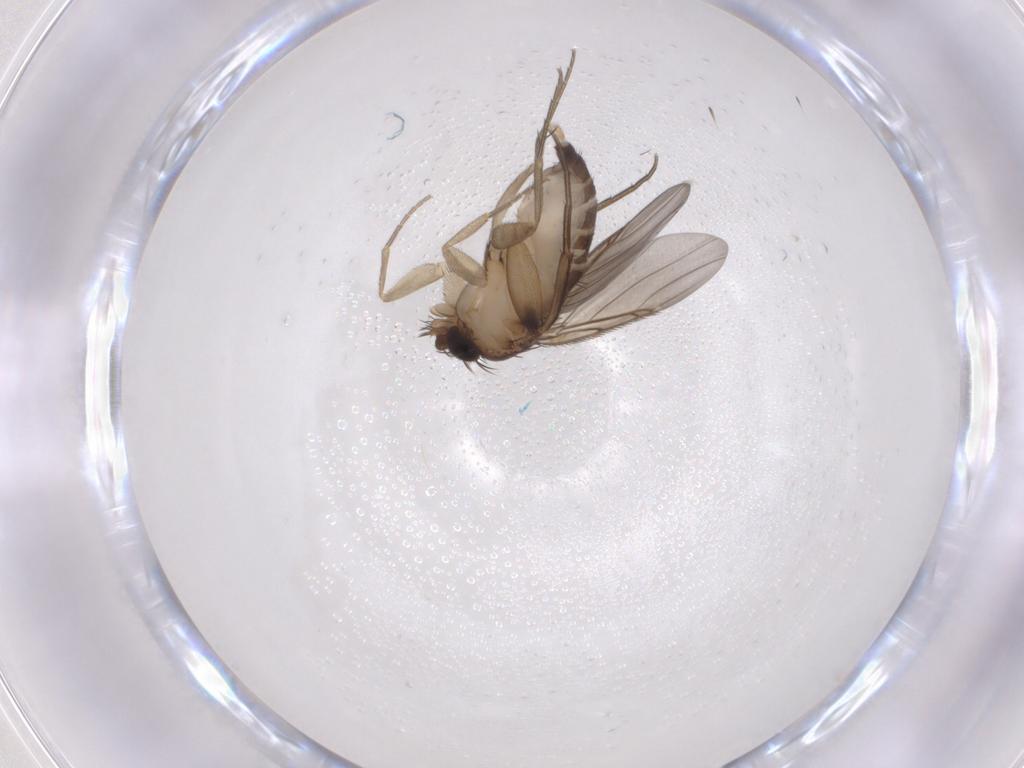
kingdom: Animalia
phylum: Arthropoda
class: Insecta
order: Diptera
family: Phoridae
